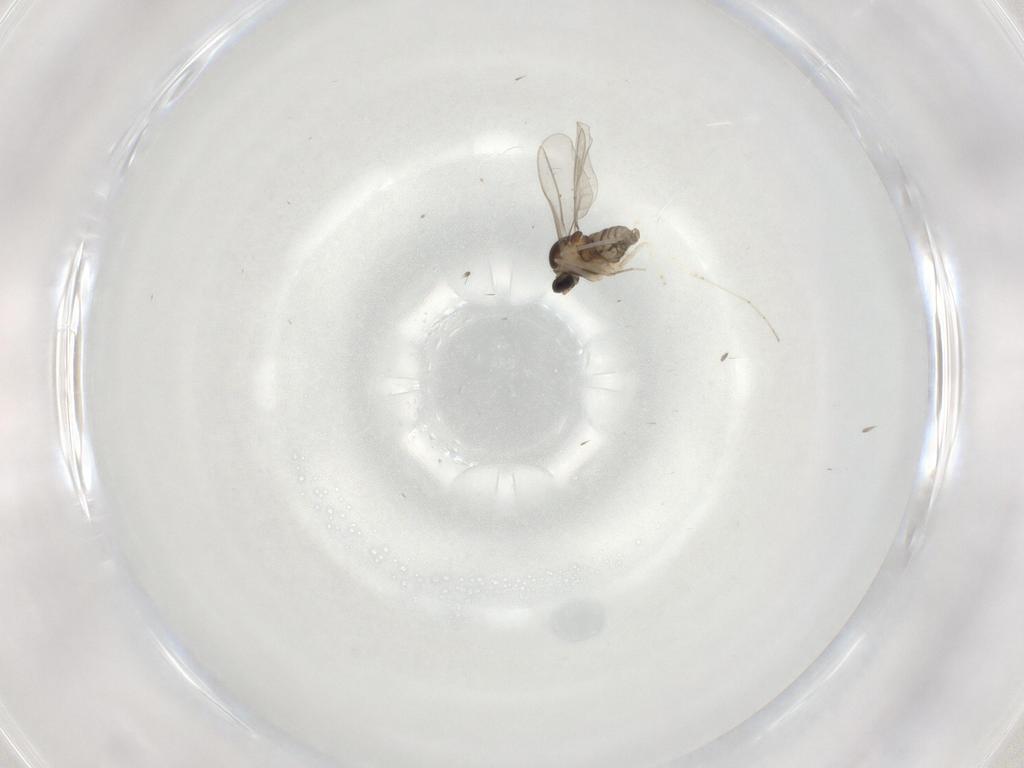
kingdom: Animalia
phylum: Arthropoda
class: Insecta
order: Diptera
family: Cecidomyiidae
